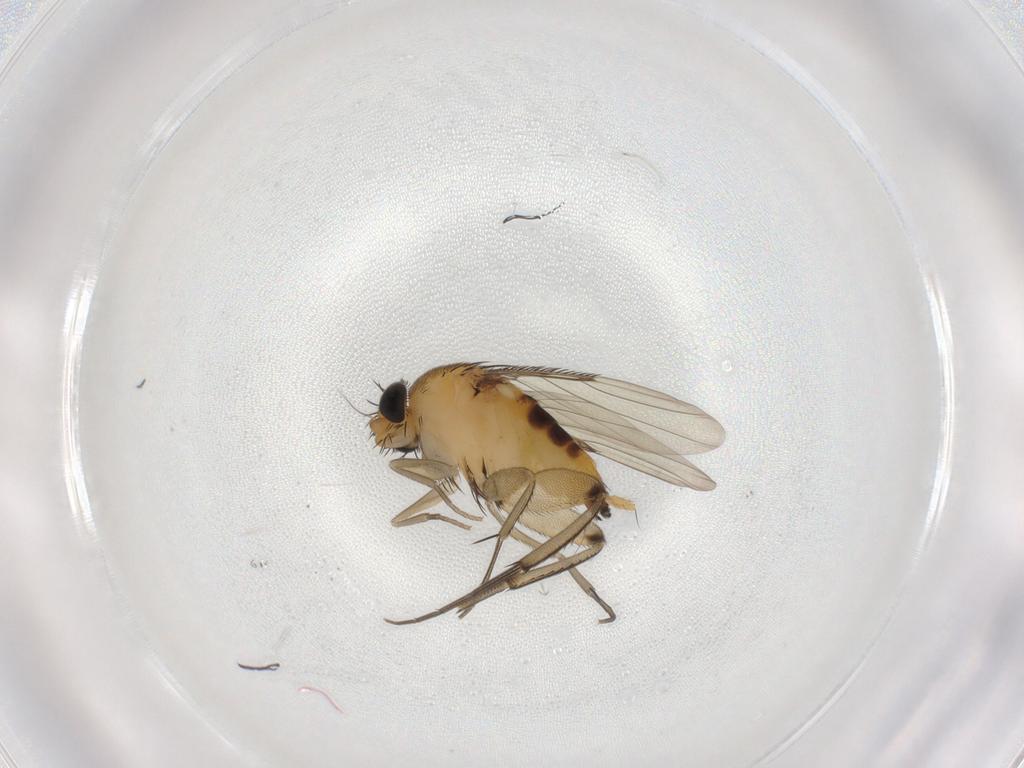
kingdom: Animalia
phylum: Arthropoda
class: Insecta
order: Diptera
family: Phoridae
